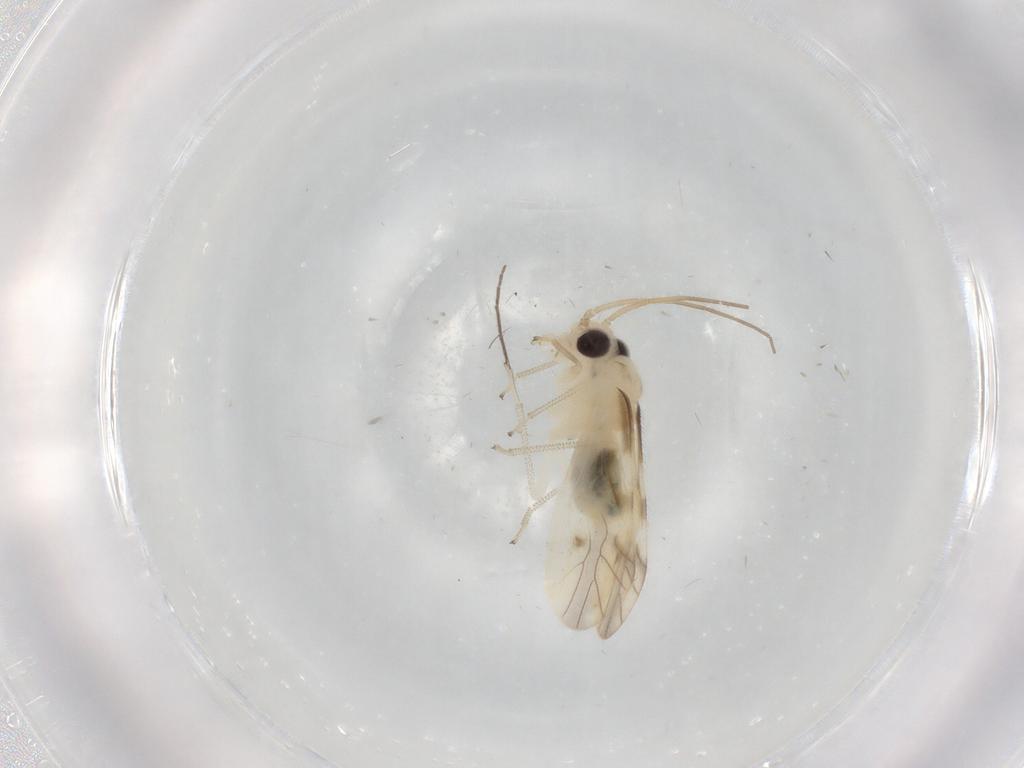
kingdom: Animalia
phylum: Arthropoda
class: Insecta
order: Psocodea
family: Caeciliusidae
